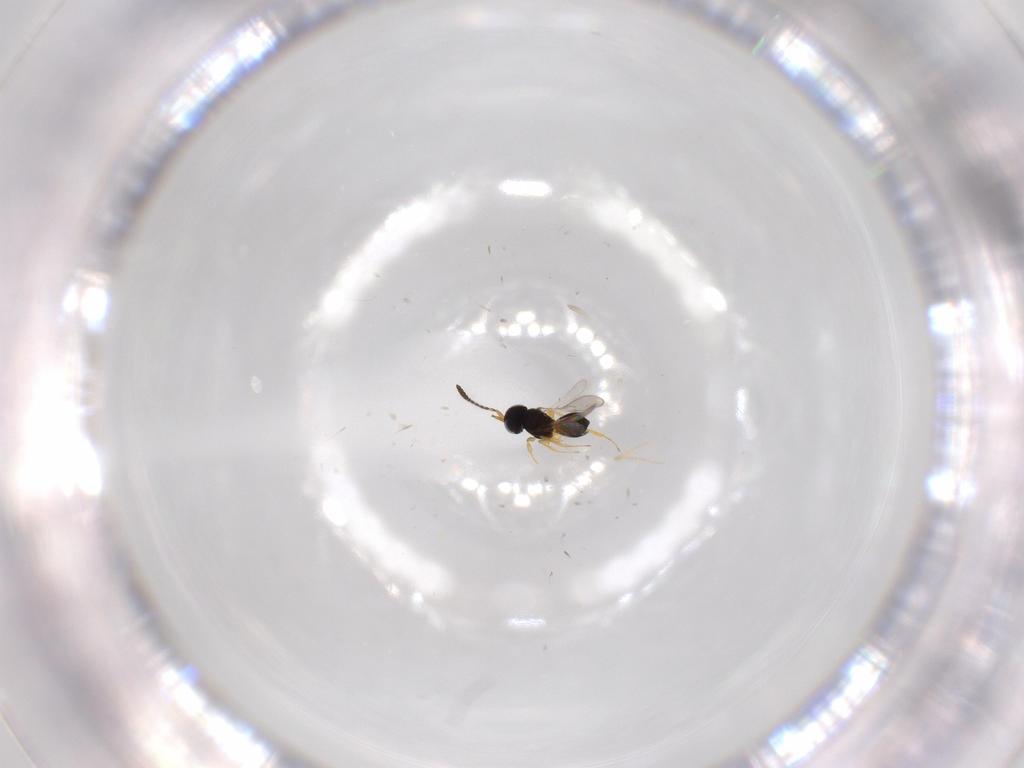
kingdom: Animalia
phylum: Arthropoda
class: Insecta
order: Hymenoptera
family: Scelionidae
